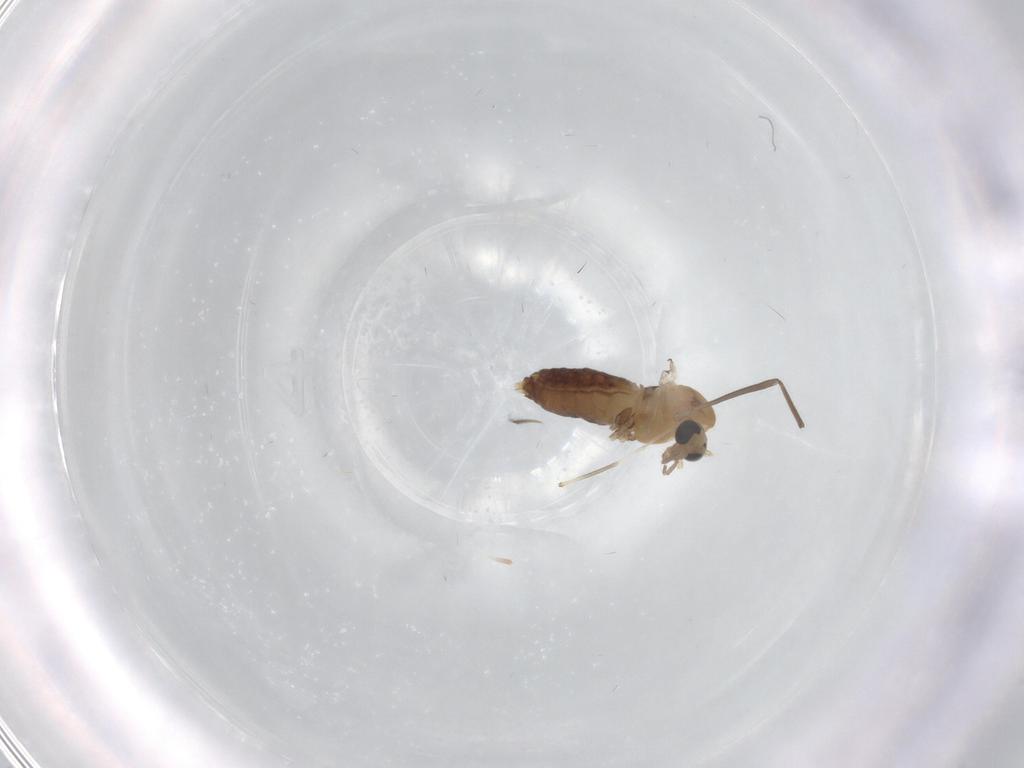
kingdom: Animalia
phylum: Arthropoda
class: Insecta
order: Diptera
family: Chironomidae
